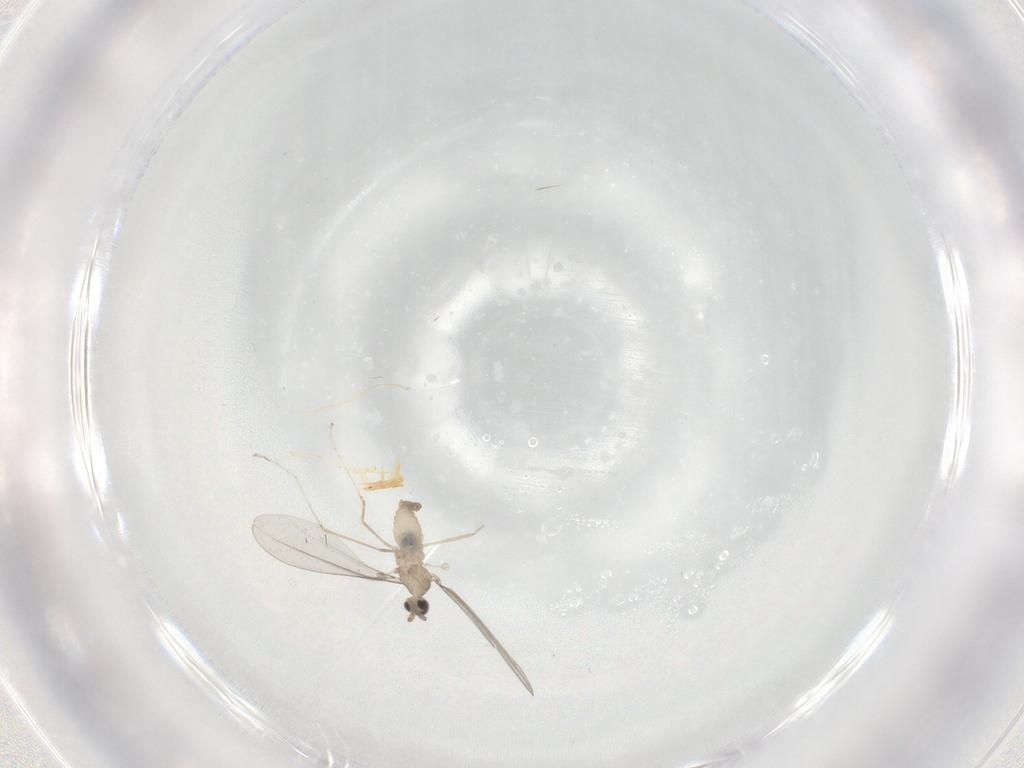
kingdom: Animalia
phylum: Arthropoda
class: Insecta
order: Diptera
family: Cecidomyiidae
